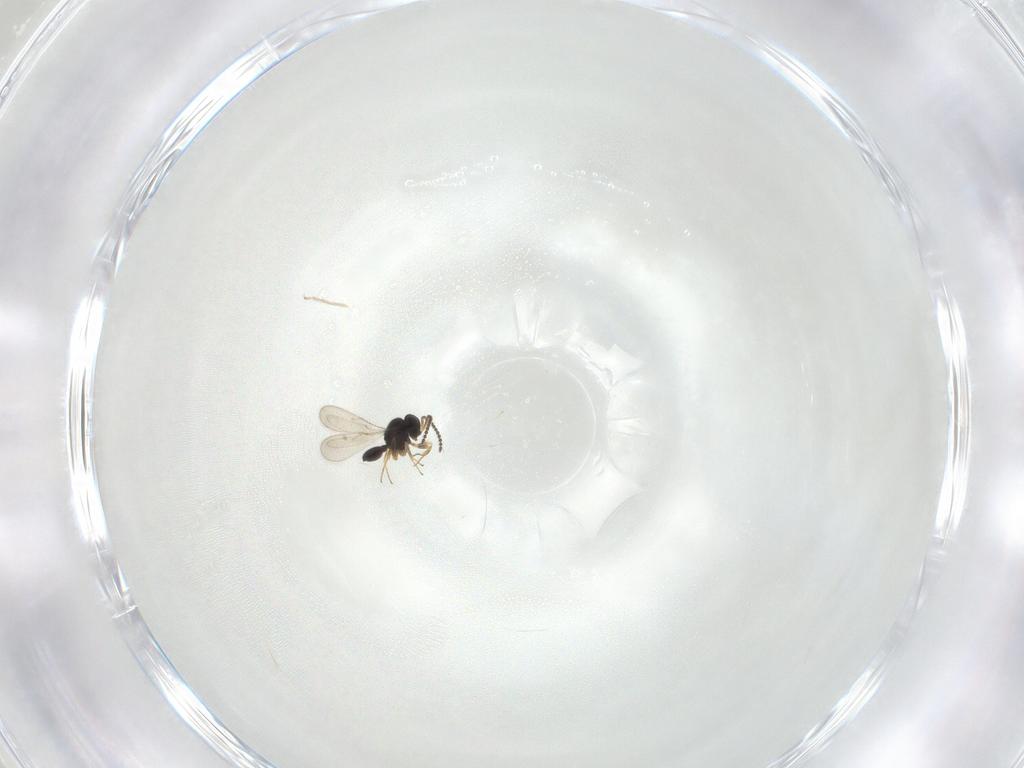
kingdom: Animalia
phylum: Arthropoda
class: Insecta
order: Hymenoptera
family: Scelionidae
